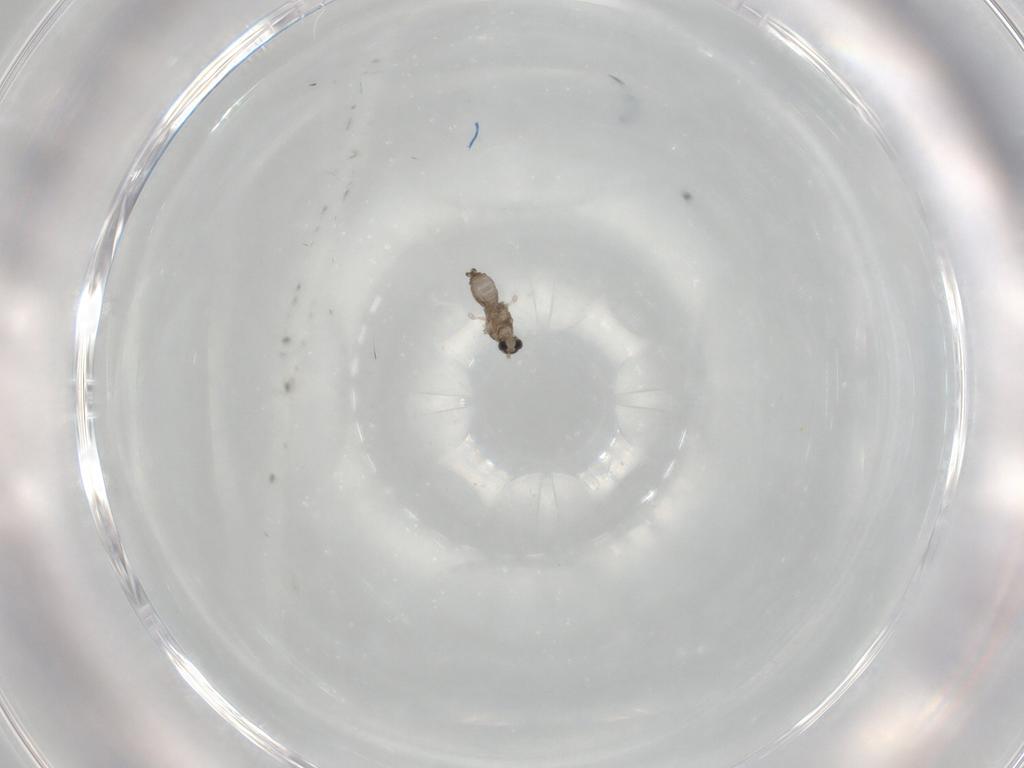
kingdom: Animalia
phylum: Arthropoda
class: Insecta
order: Diptera
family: Cecidomyiidae
